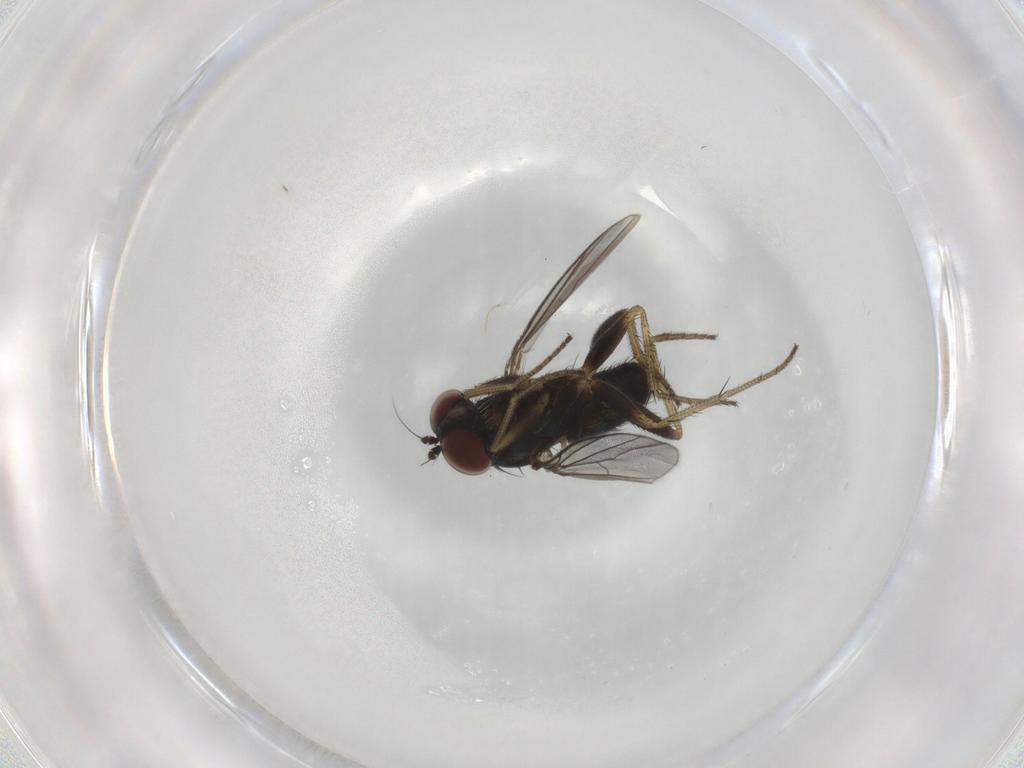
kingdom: Animalia
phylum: Arthropoda
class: Insecta
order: Diptera
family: Dolichopodidae
